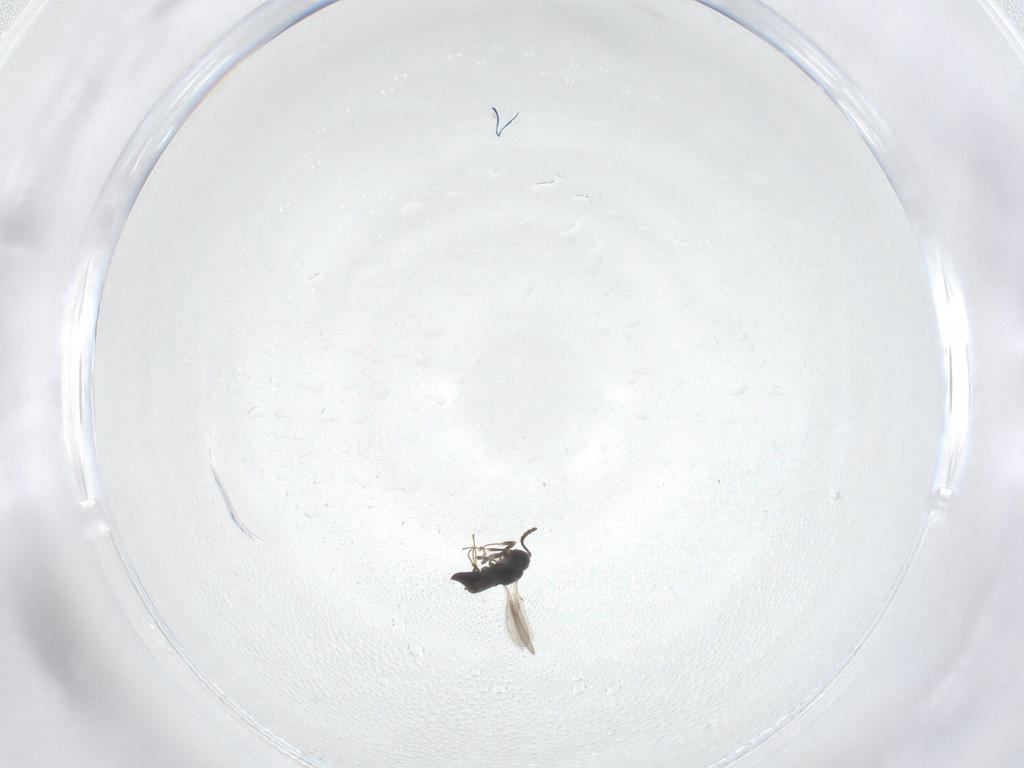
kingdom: Animalia
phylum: Arthropoda
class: Insecta
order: Hymenoptera
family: Scelionidae
